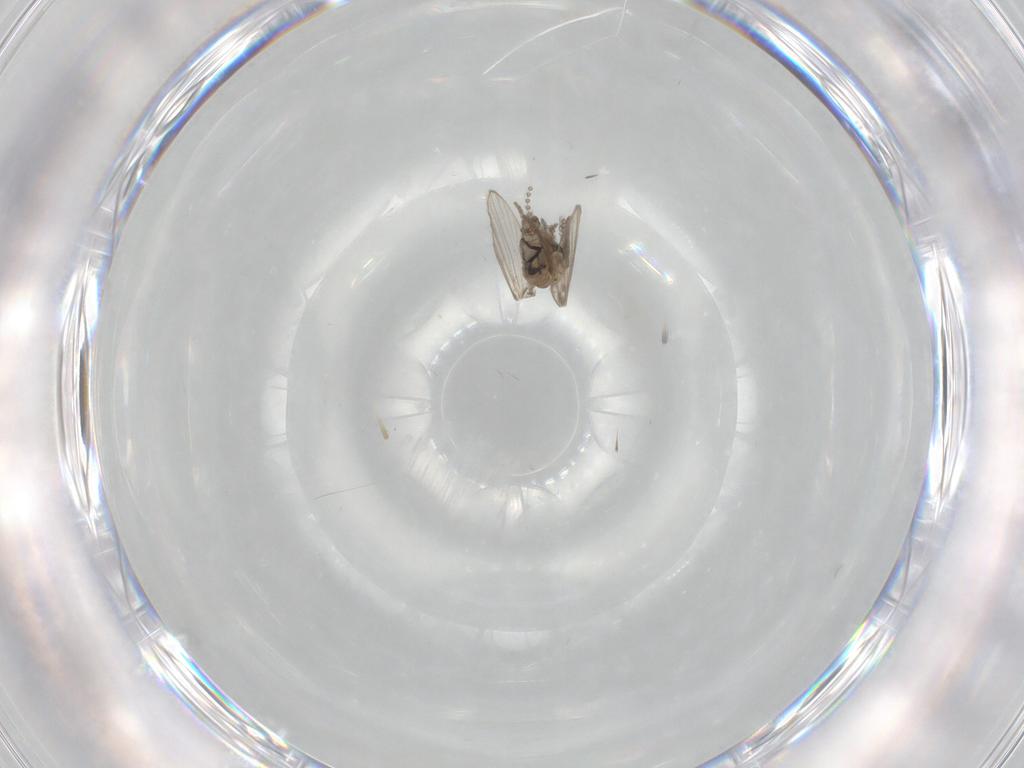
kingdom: Animalia
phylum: Arthropoda
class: Insecta
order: Diptera
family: Psychodidae
